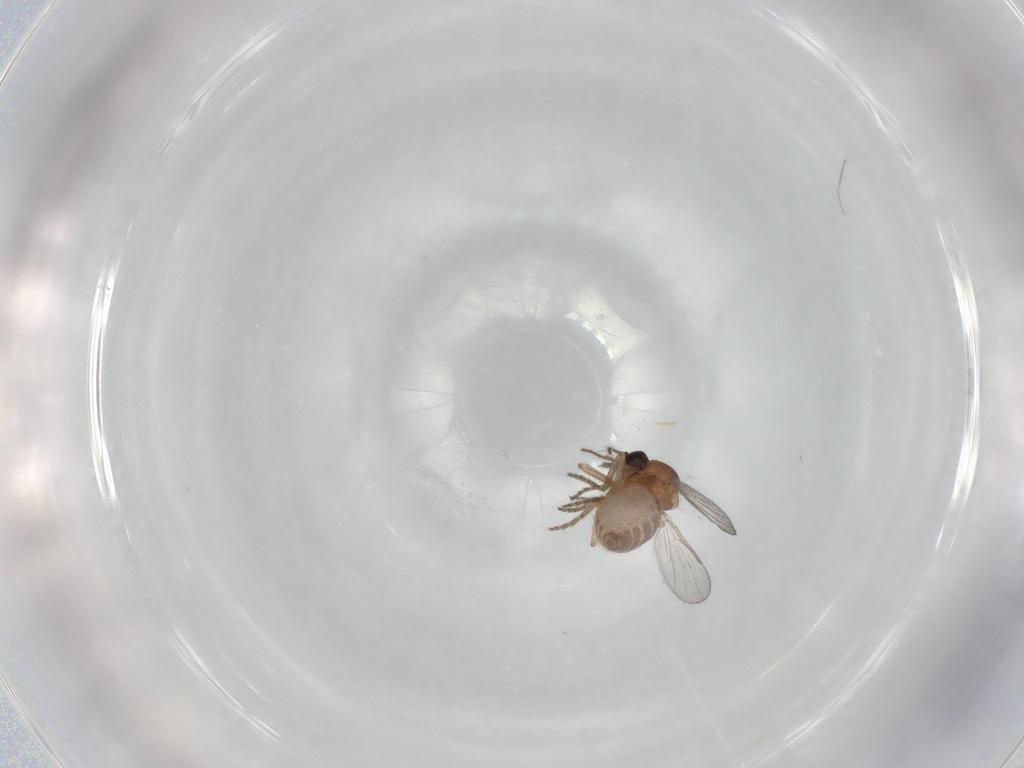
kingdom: Animalia
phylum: Arthropoda
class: Insecta
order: Diptera
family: Ceratopogonidae
